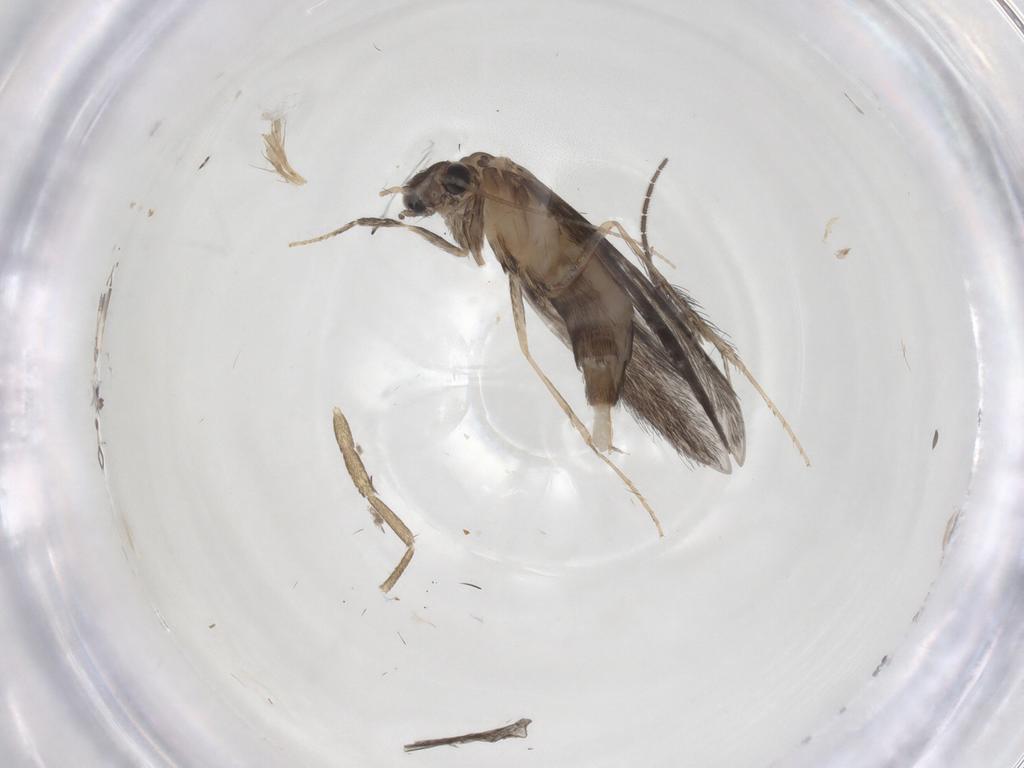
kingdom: Animalia
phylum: Arthropoda
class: Insecta
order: Trichoptera
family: Hydroptilidae
